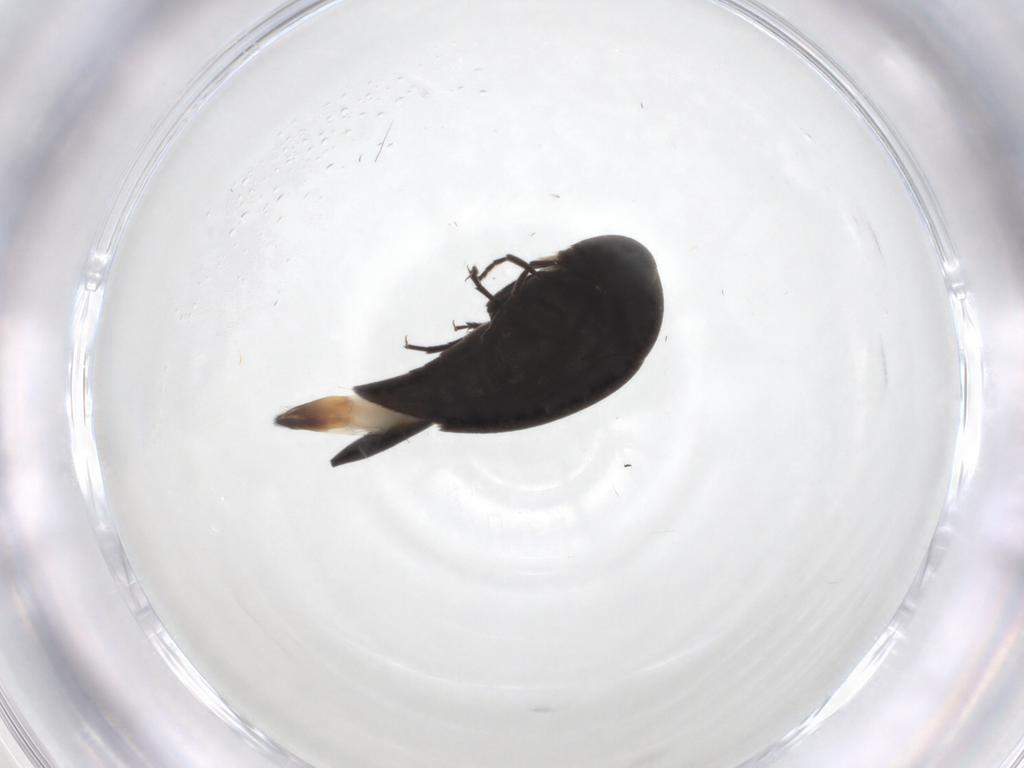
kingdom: Animalia
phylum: Arthropoda
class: Insecta
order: Coleoptera
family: Mordellidae
